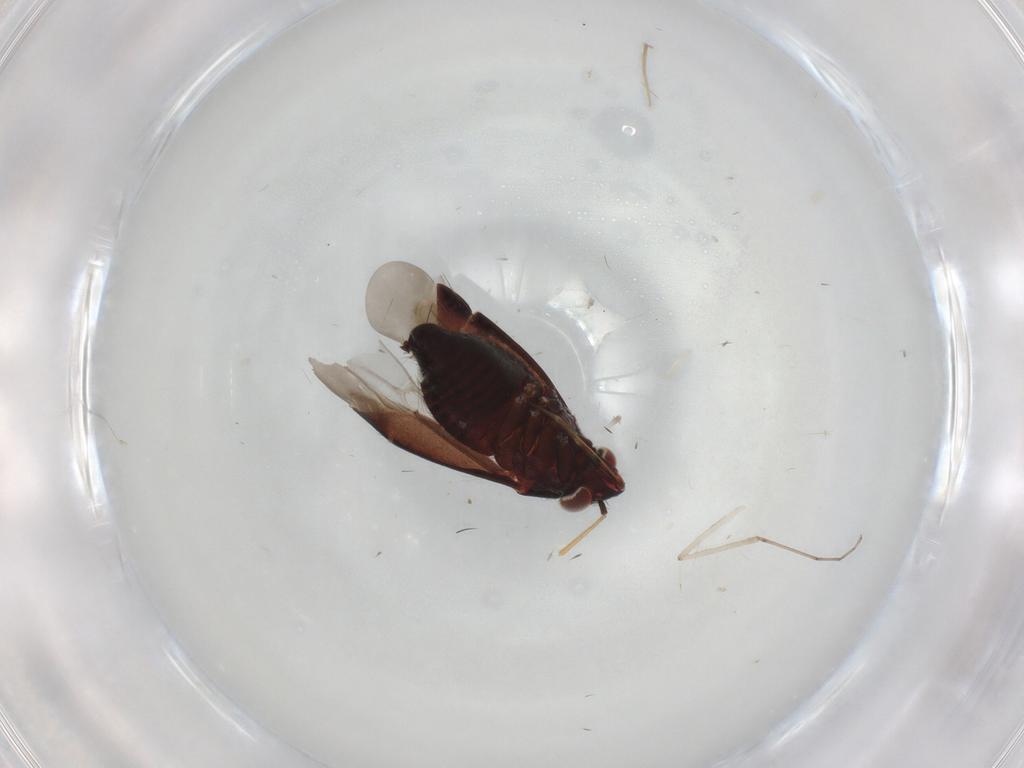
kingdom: Animalia
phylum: Arthropoda
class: Insecta
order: Hemiptera
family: Miridae
